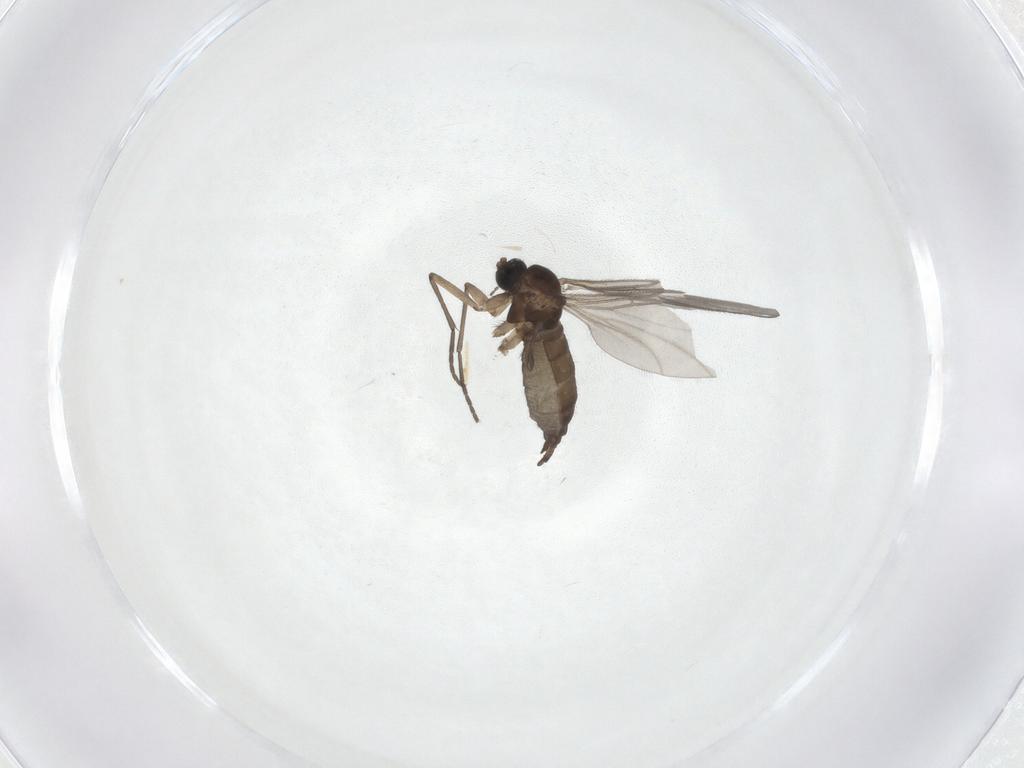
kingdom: Animalia
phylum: Arthropoda
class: Insecta
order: Diptera
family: Sciaridae
